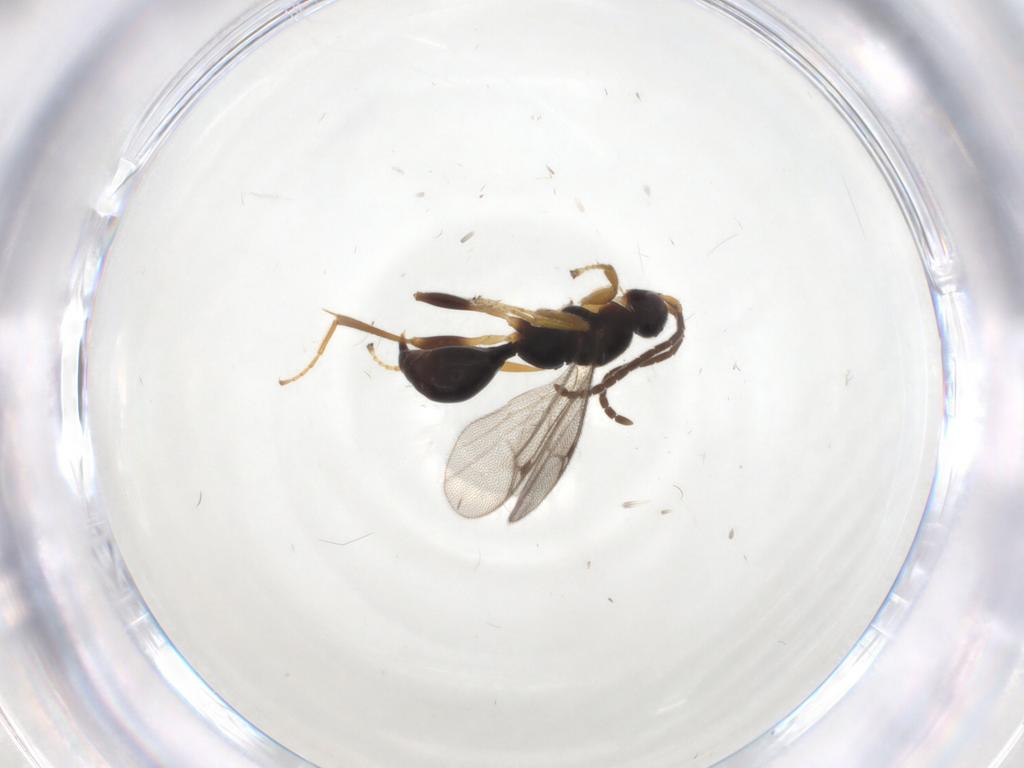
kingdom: Animalia
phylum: Arthropoda
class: Insecta
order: Hymenoptera
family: Proctotrupidae
